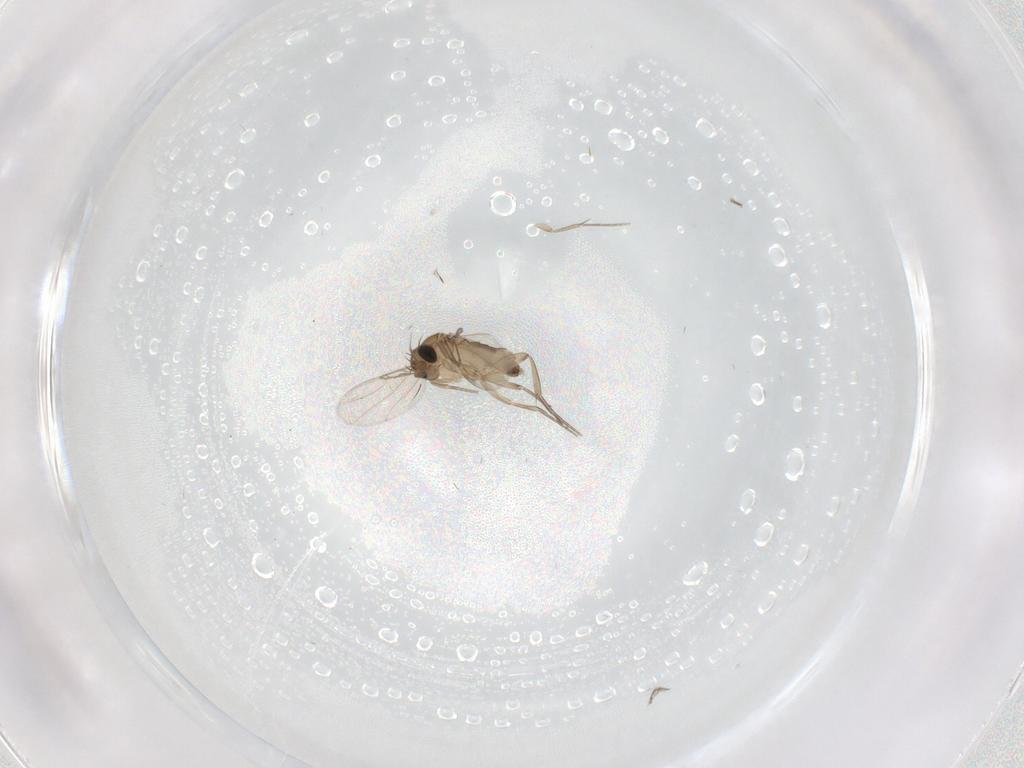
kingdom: Animalia
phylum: Arthropoda
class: Insecta
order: Diptera
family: Phoridae
